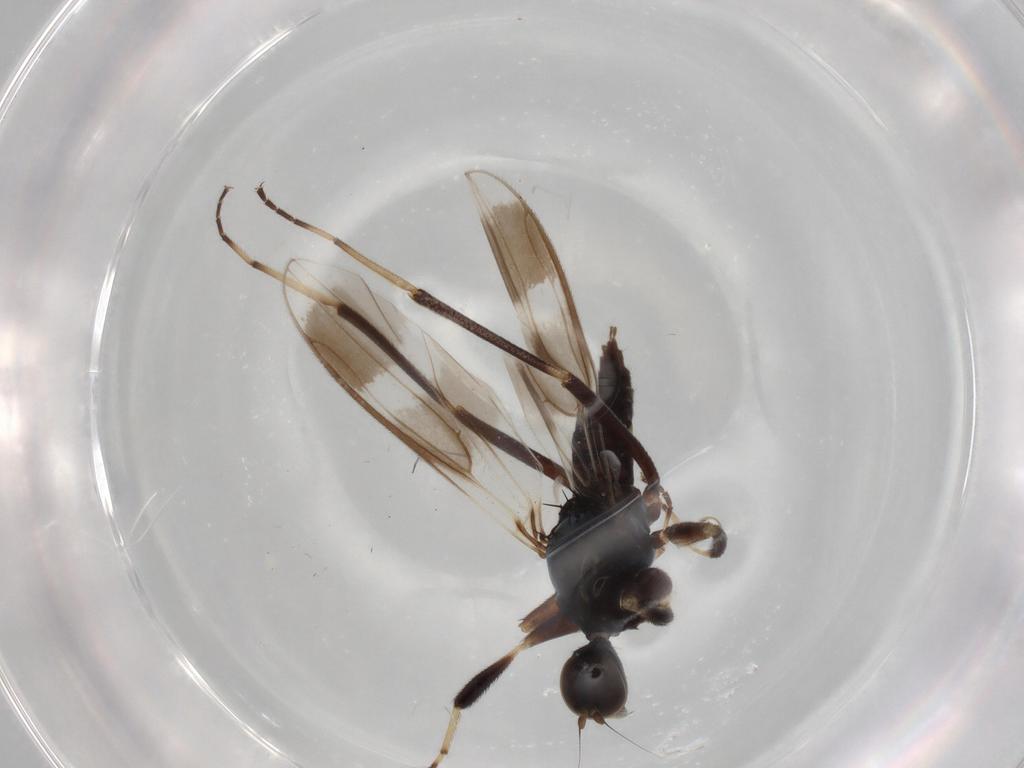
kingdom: Animalia
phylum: Arthropoda
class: Insecta
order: Diptera
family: Hybotidae
